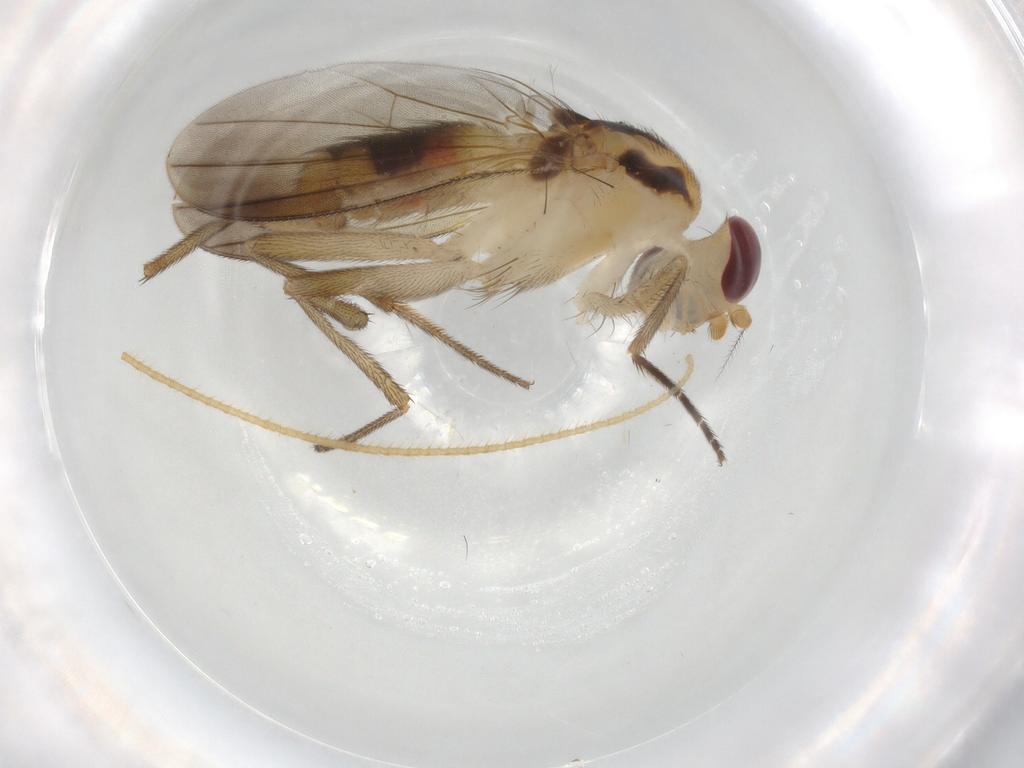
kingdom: Animalia
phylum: Arthropoda
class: Insecta
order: Diptera
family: Clusiidae
